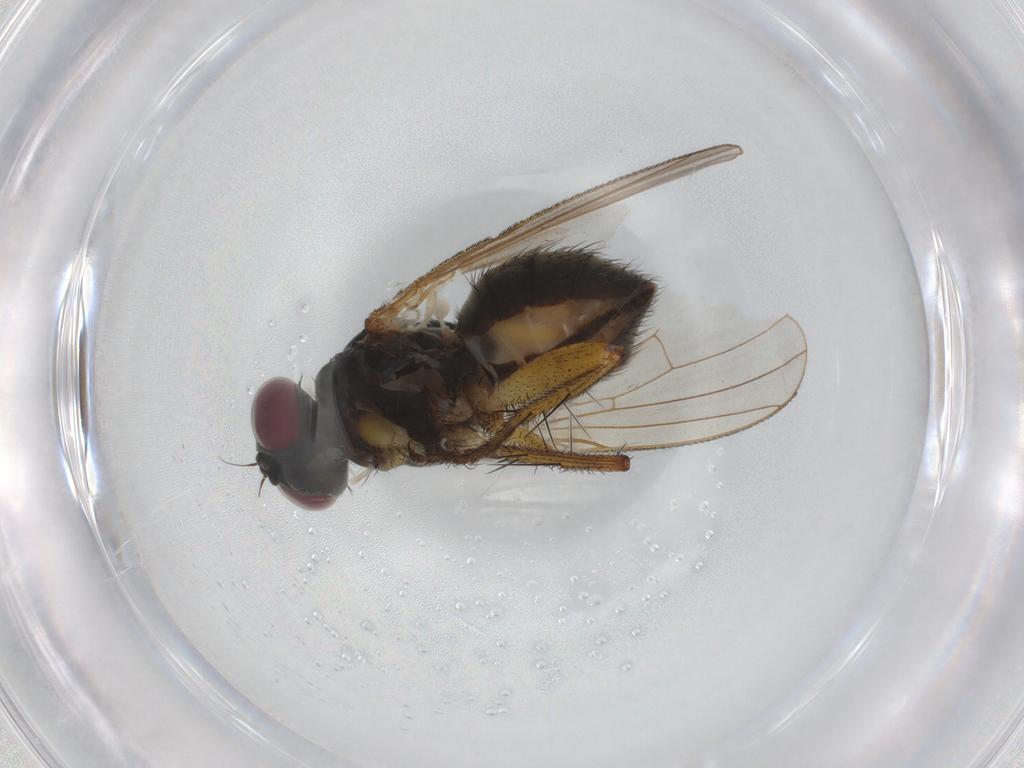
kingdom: Animalia
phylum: Arthropoda
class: Insecta
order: Diptera
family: Muscidae
